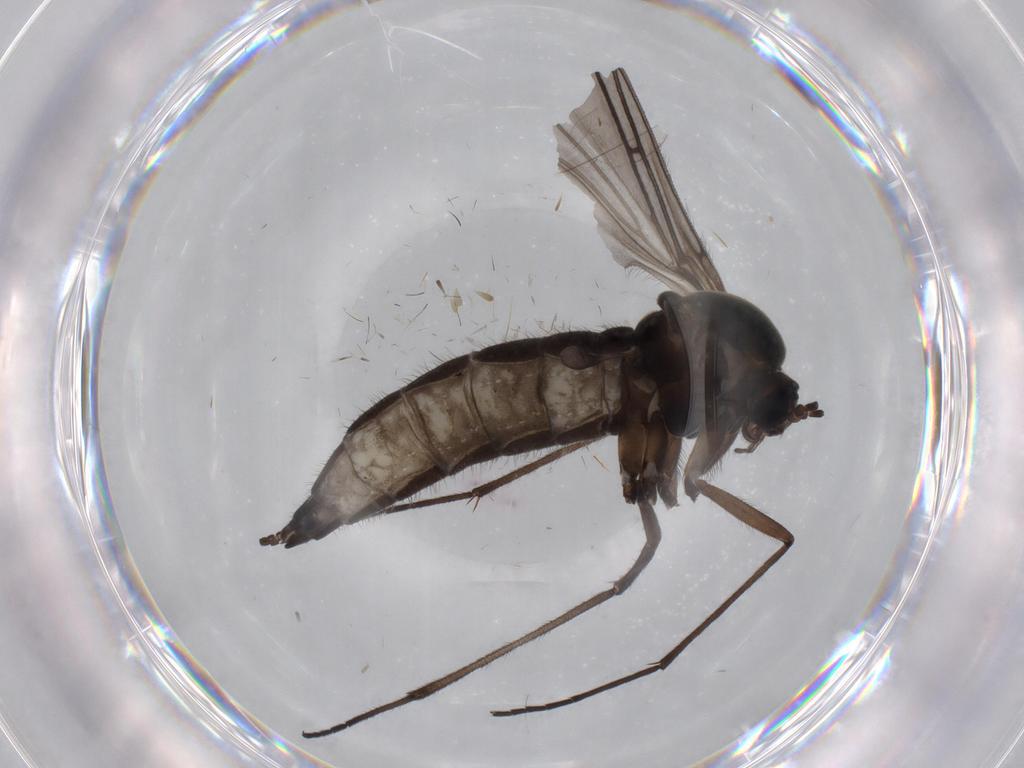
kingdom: Animalia
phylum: Arthropoda
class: Insecta
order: Diptera
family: Sciaridae
